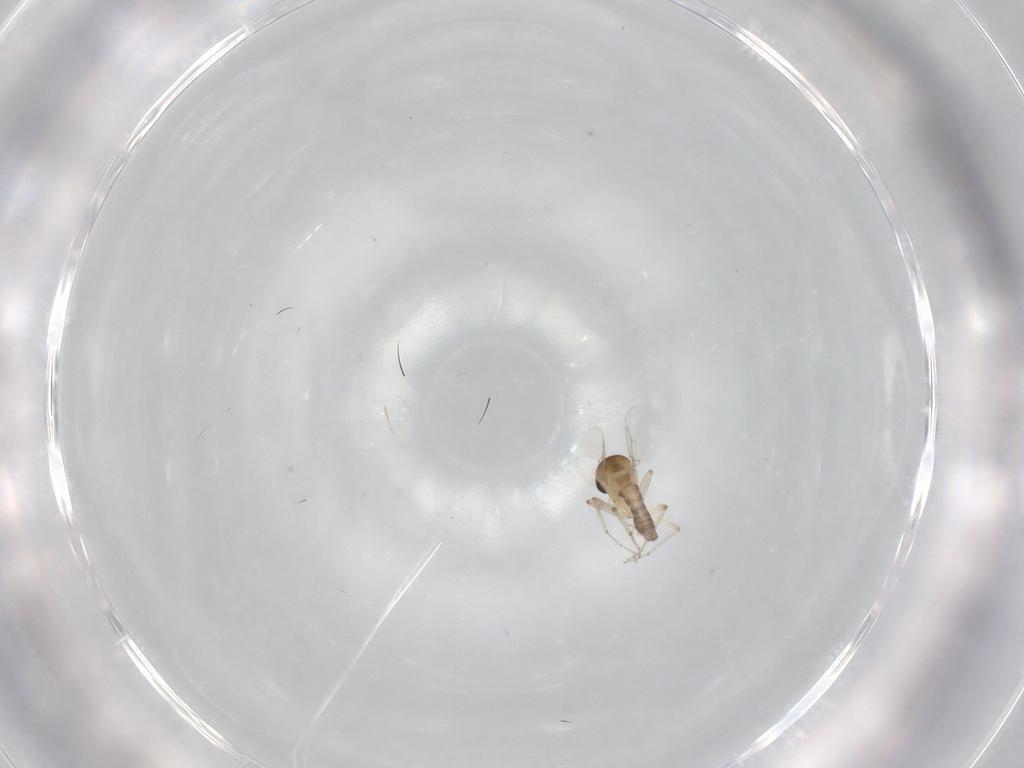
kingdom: Animalia
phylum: Arthropoda
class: Insecta
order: Diptera
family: Ceratopogonidae
